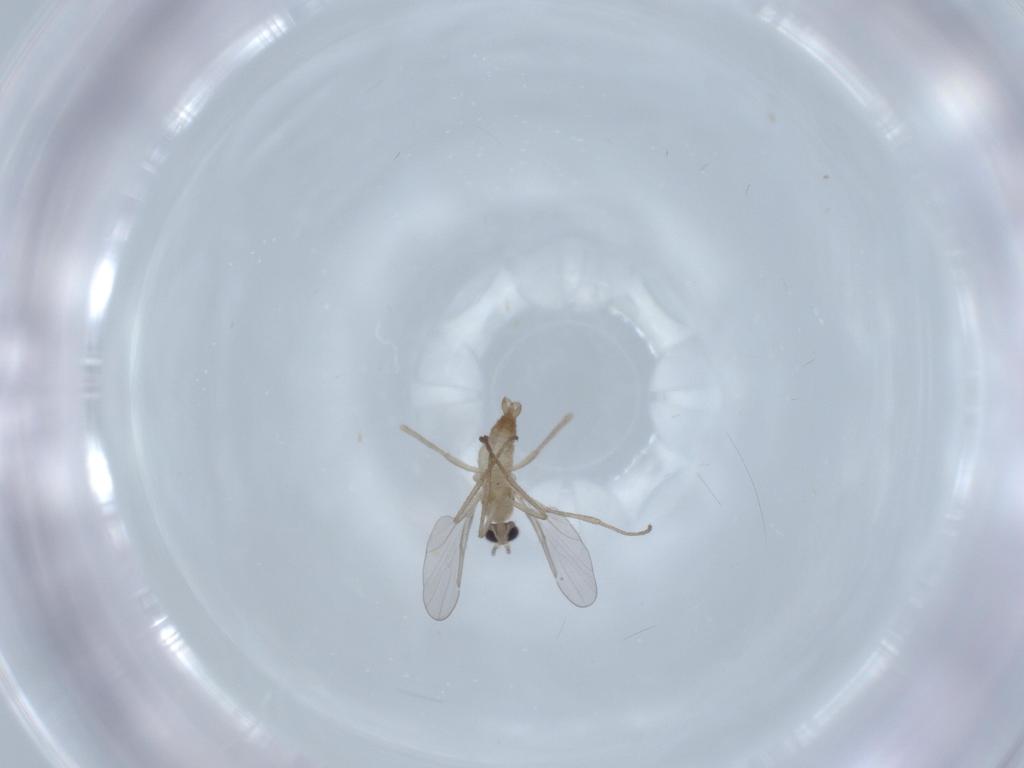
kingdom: Animalia
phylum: Arthropoda
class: Insecta
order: Diptera
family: Cecidomyiidae
